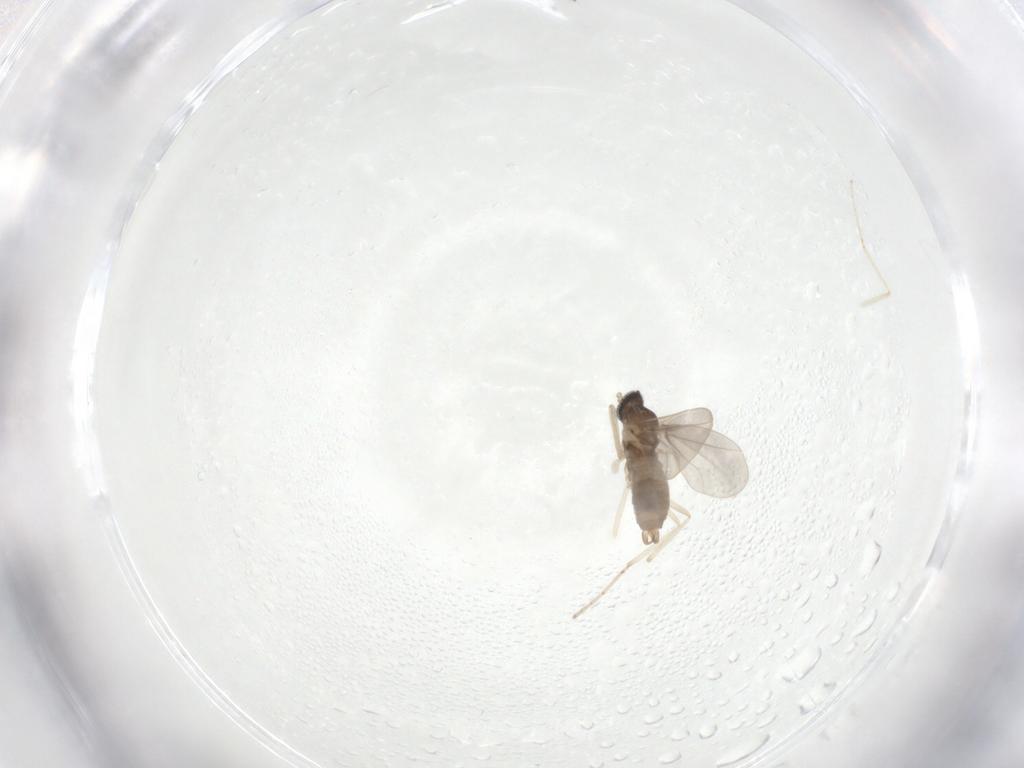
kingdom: Animalia
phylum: Arthropoda
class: Insecta
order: Diptera
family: Cecidomyiidae
